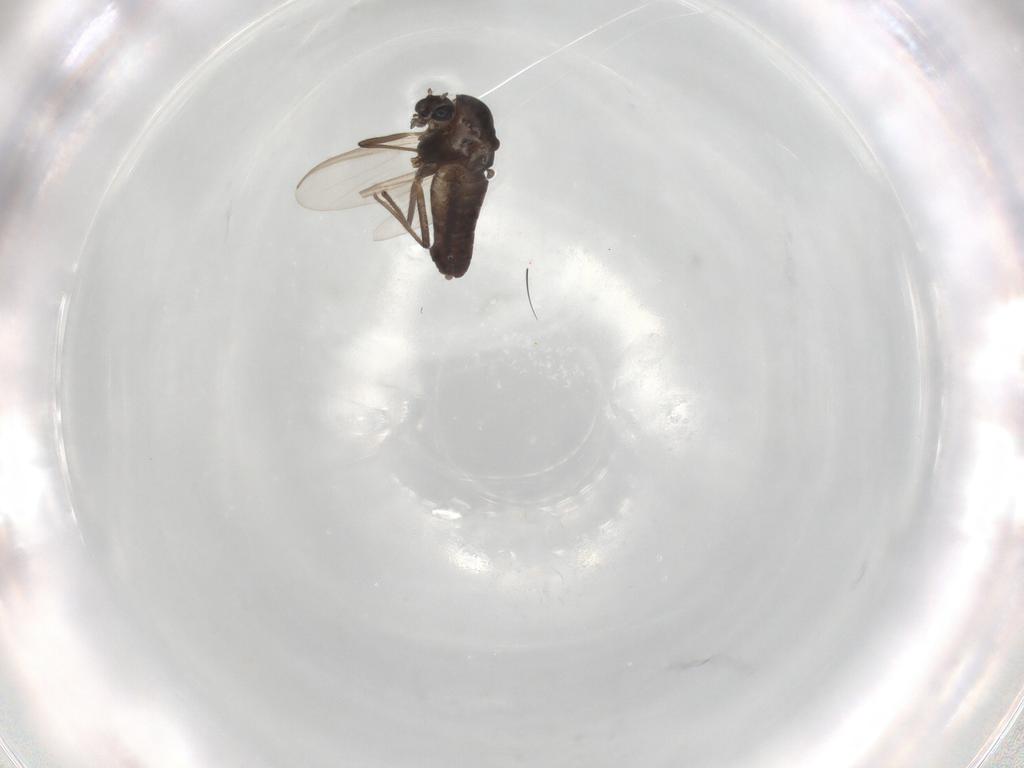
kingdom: Animalia
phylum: Arthropoda
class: Insecta
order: Diptera
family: Chironomidae
